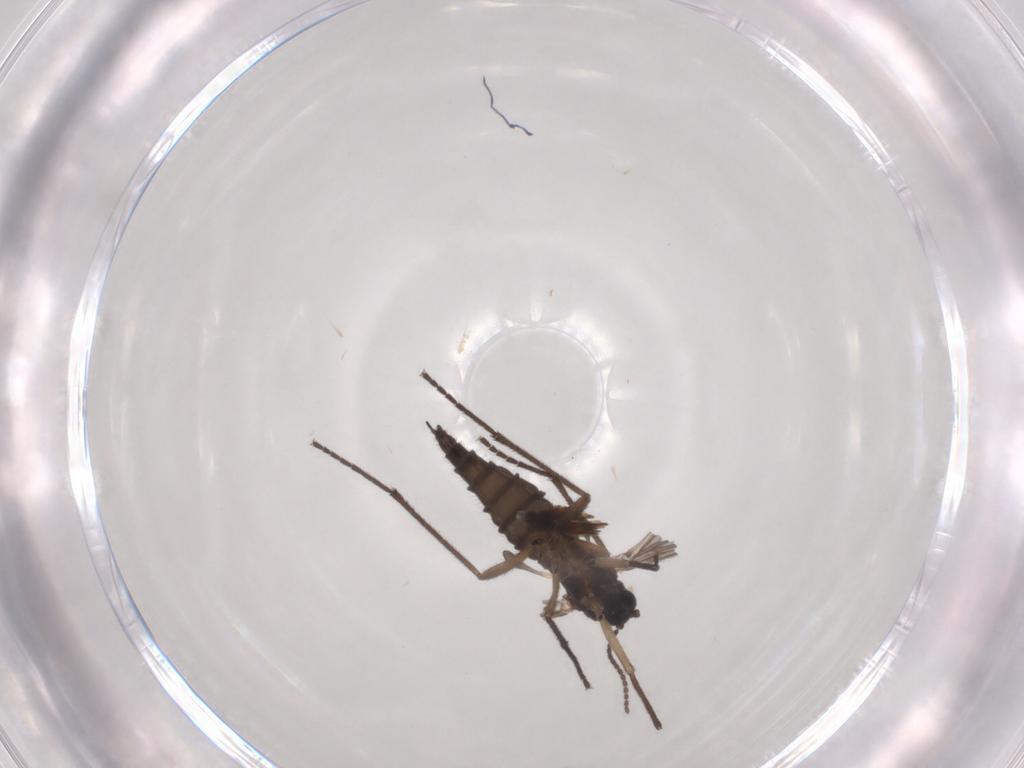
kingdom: Animalia
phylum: Arthropoda
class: Insecta
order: Diptera
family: Sciaridae
